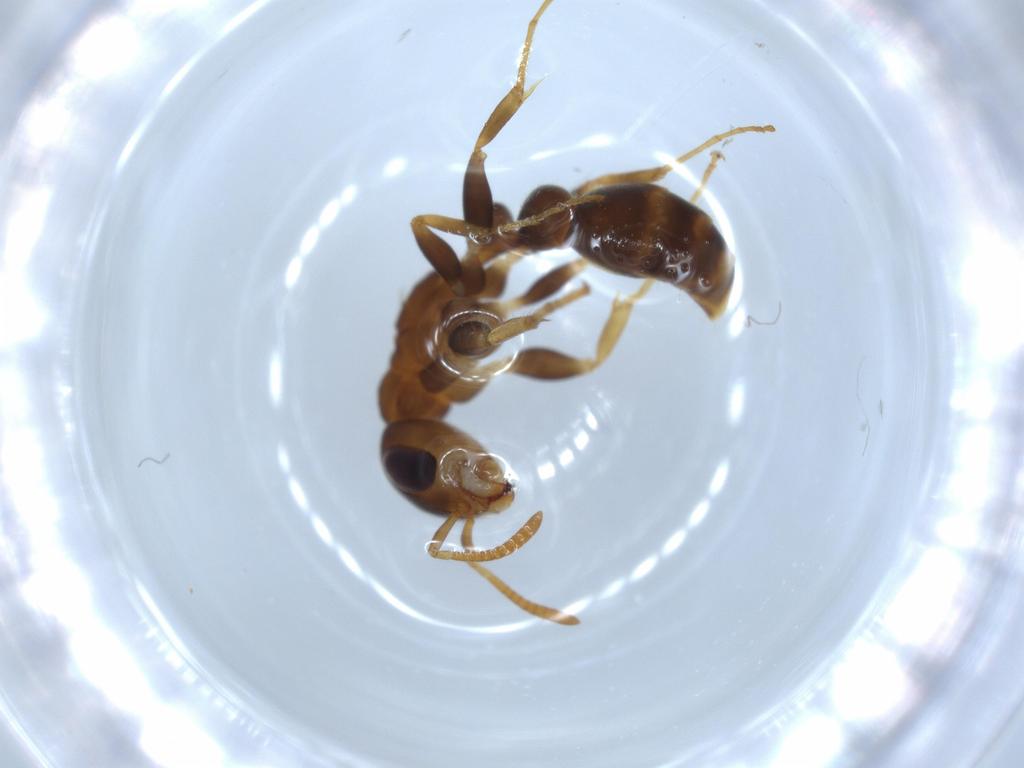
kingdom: Animalia
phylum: Arthropoda
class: Insecta
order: Hymenoptera
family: Formicidae
